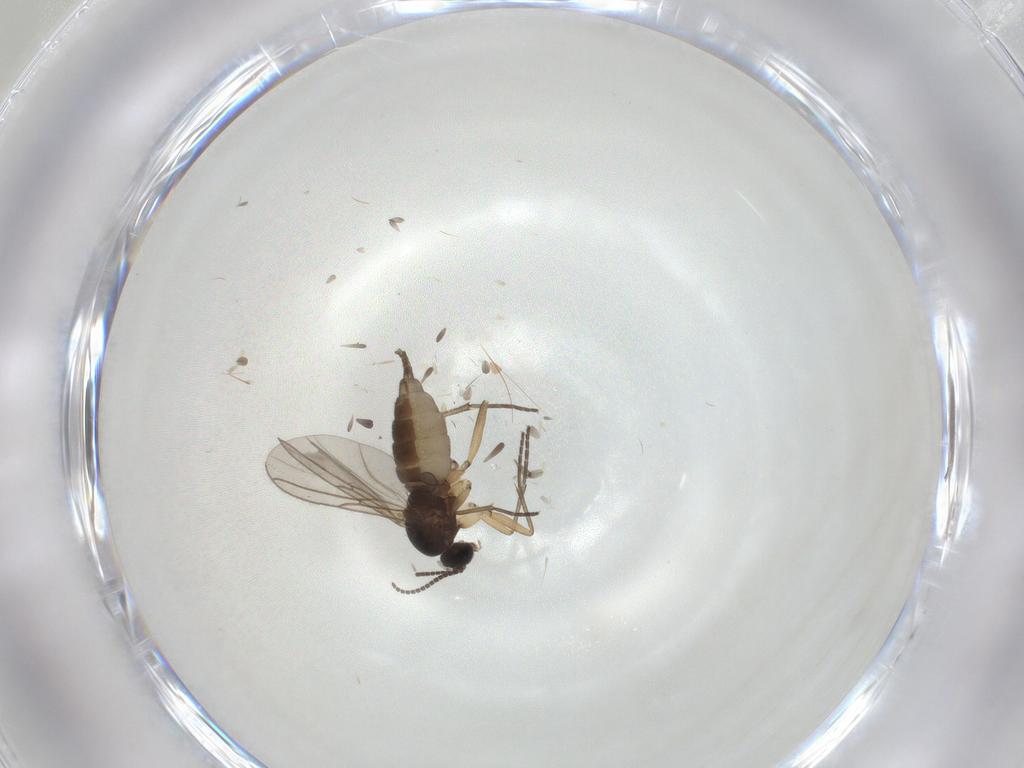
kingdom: Animalia
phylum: Arthropoda
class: Insecta
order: Diptera
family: Sciaridae
